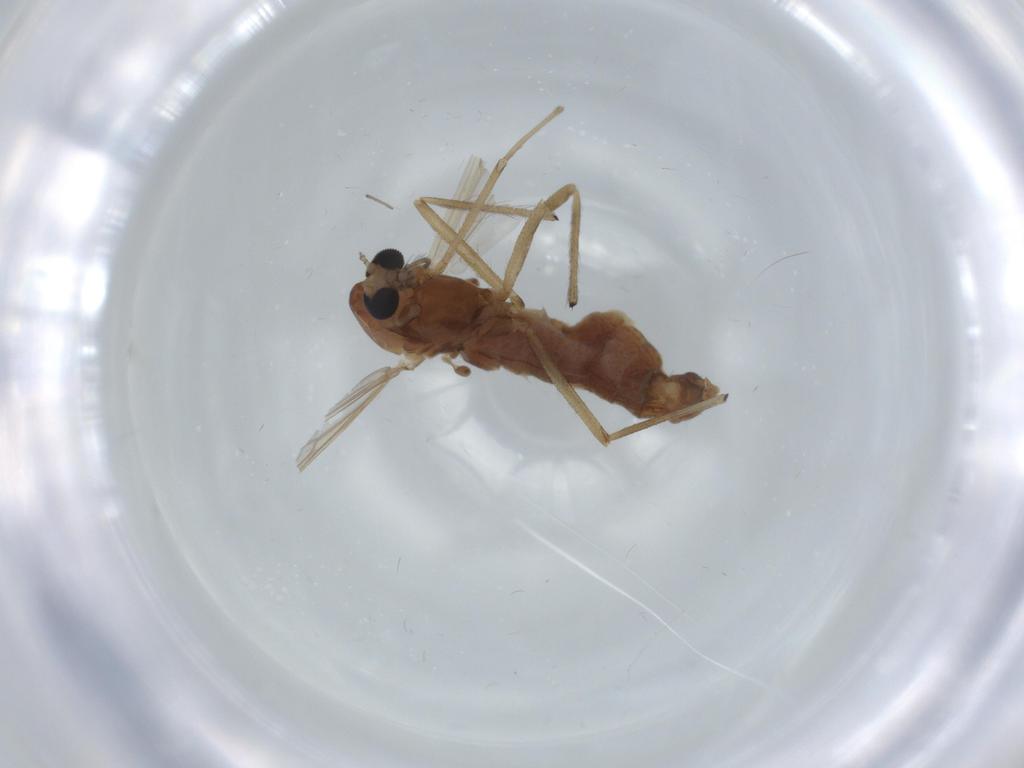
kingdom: Animalia
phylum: Arthropoda
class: Insecta
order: Diptera
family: Chironomidae
